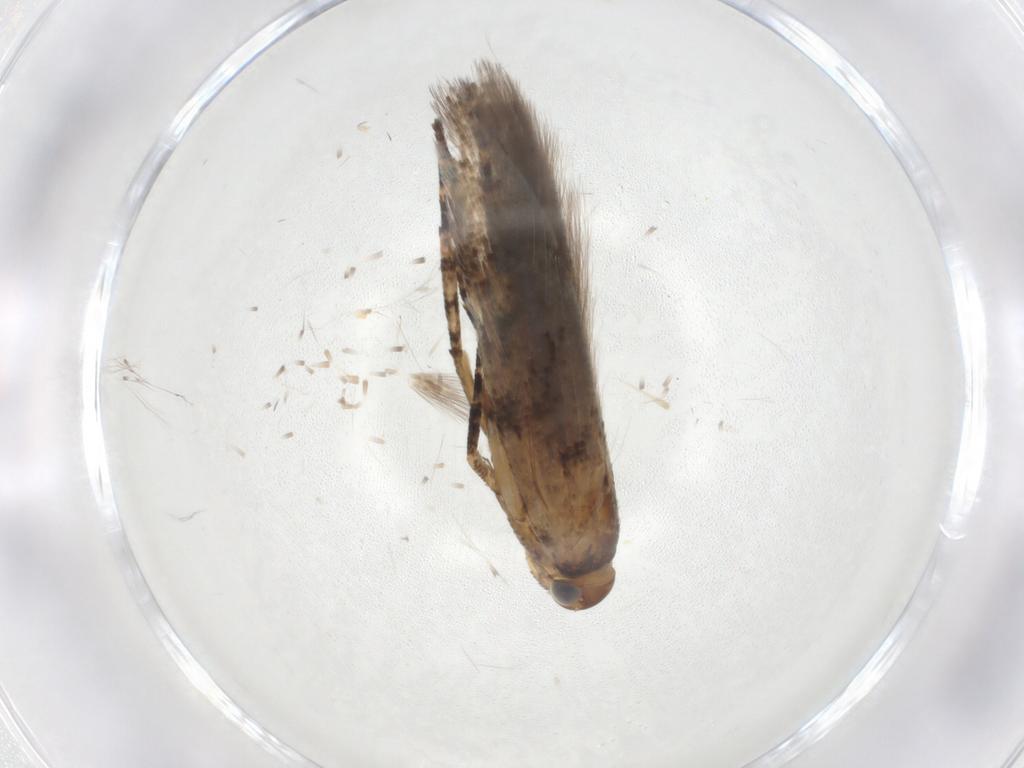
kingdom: Animalia
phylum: Arthropoda
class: Insecta
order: Lepidoptera
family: Gelechiidae
